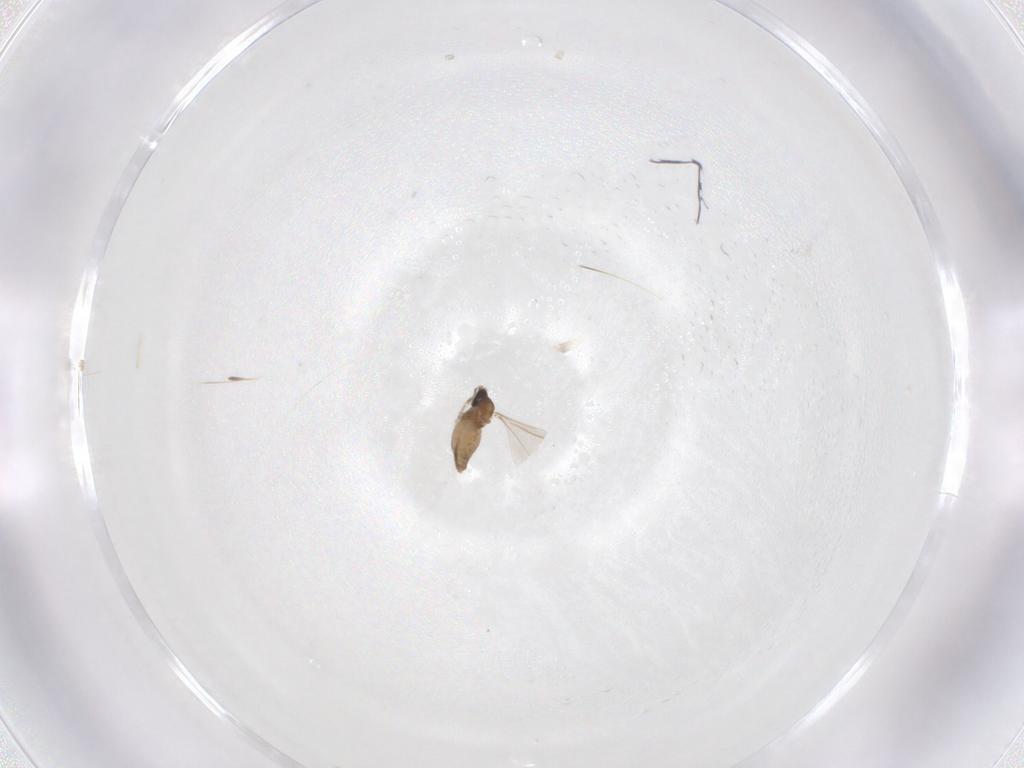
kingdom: Animalia
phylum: Arthropoda
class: Insecta
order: Diptera
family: Cecidomyiidae
